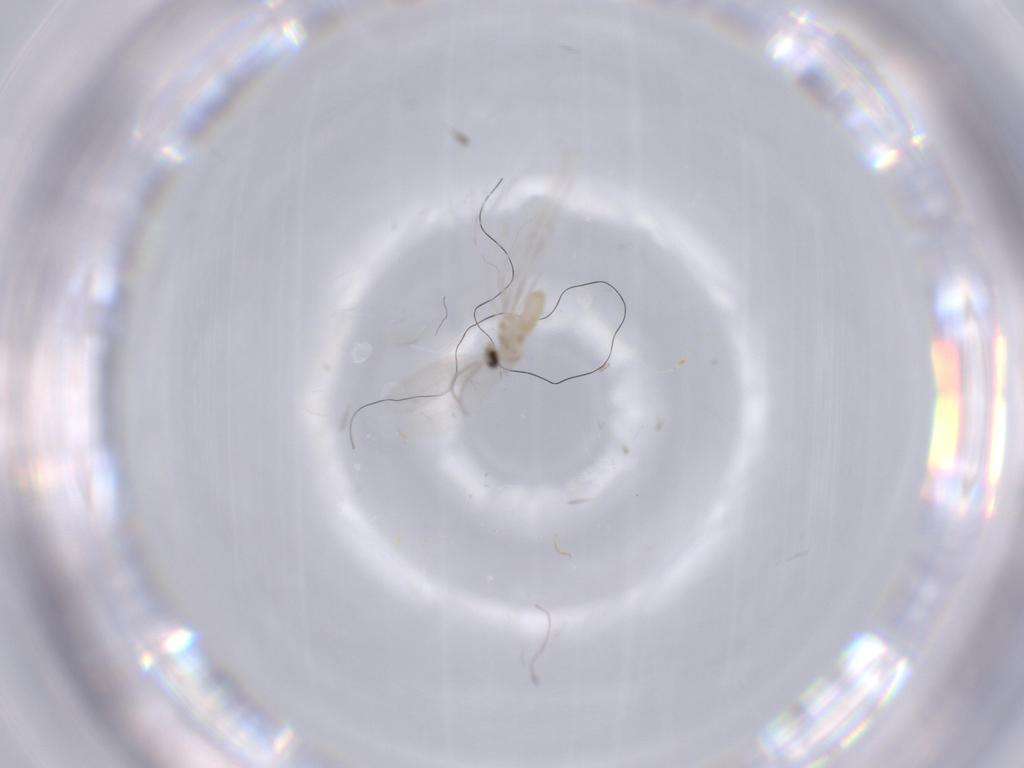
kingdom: Animalia
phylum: Arthropoda
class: Insecta
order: Diptera
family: Cecidomyiidae
